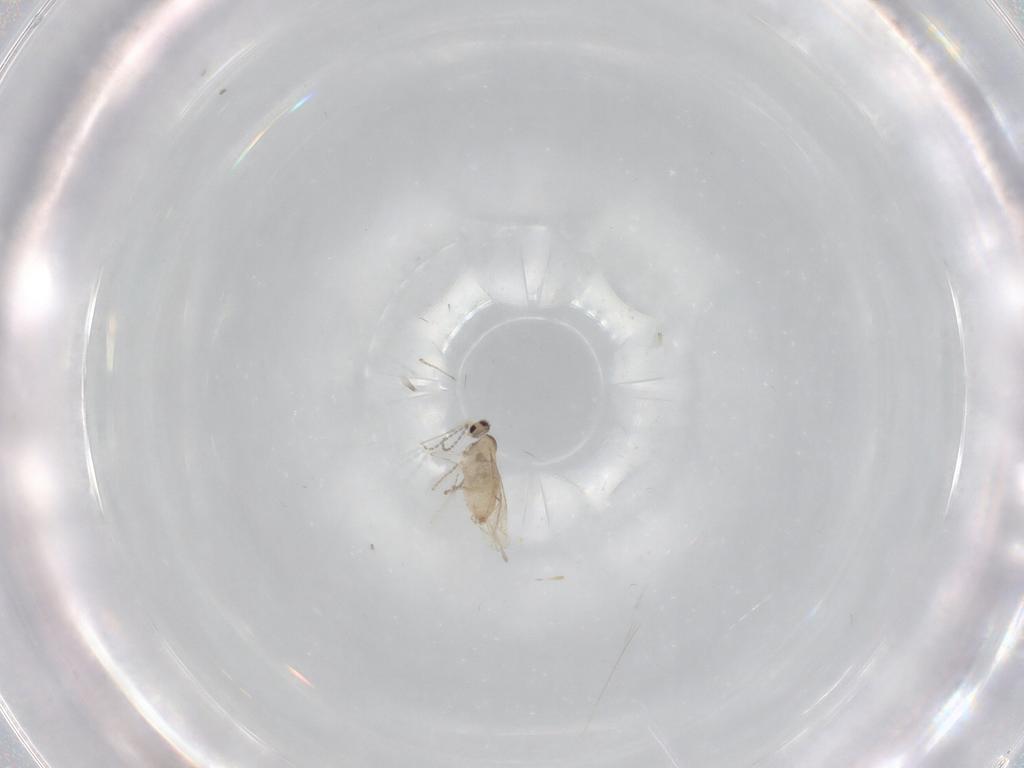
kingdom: Animalia
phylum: Arthropoda
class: Insecta
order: Diptera
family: Cecidomyiidae
